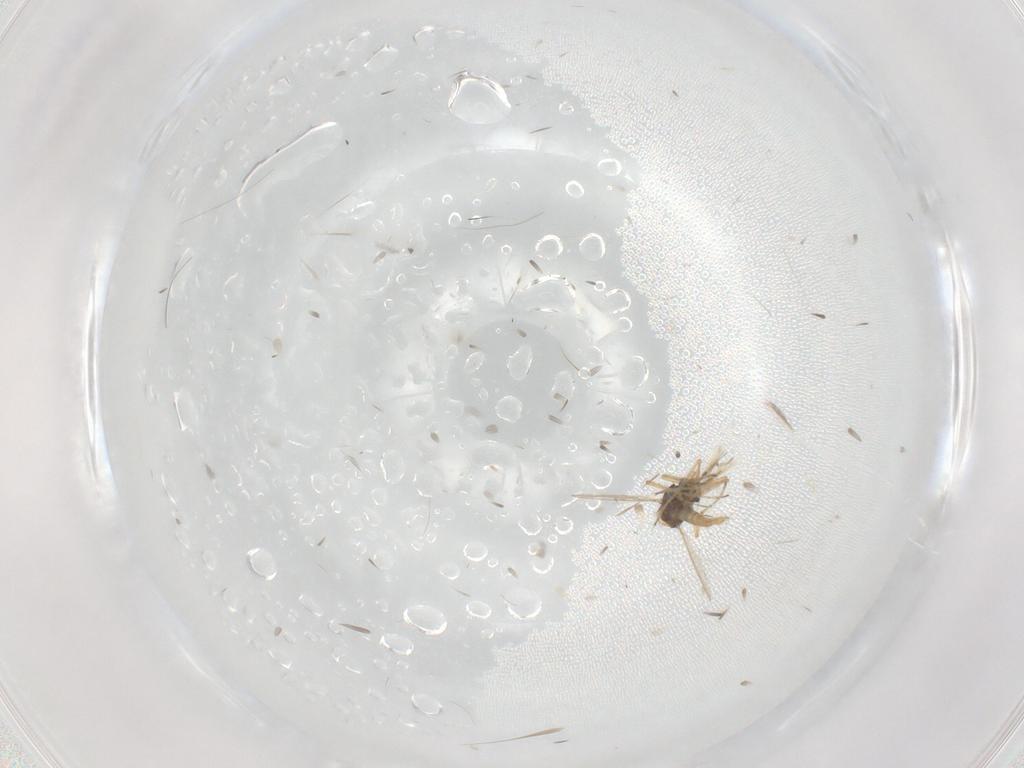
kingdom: Animalia
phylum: Arthropoda
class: Insecta
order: Diptera
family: Ceratopogonidae
